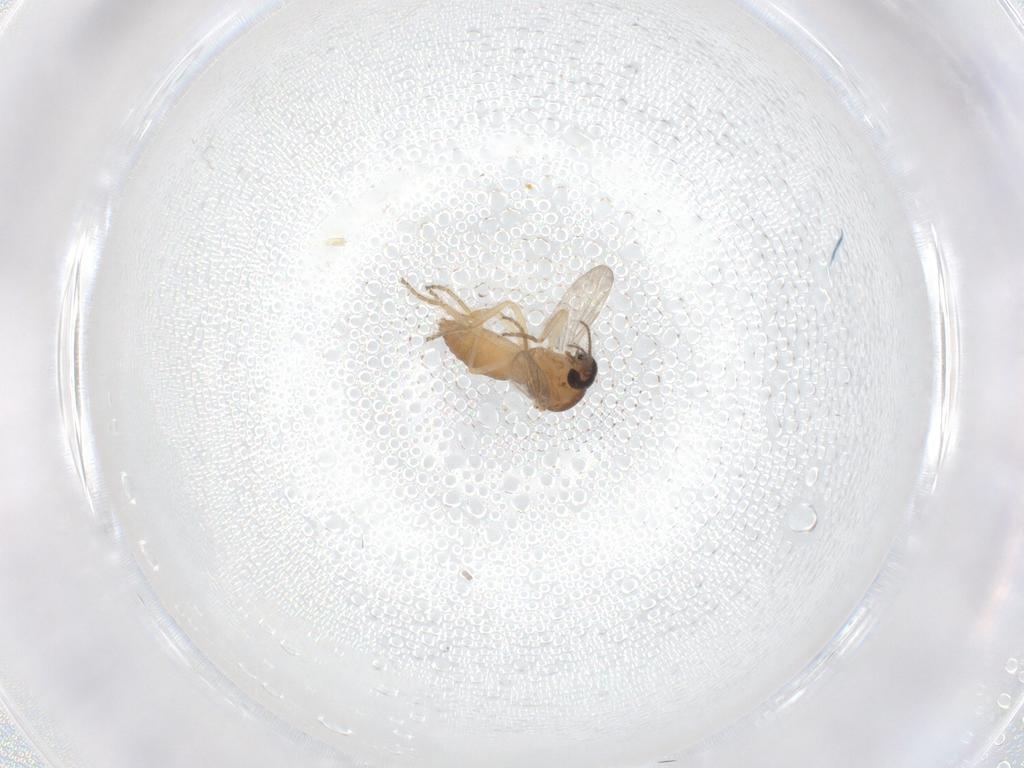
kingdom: Animalia
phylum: Arthropoda
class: Insecta
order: Diptera
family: Ceratopogonidae
